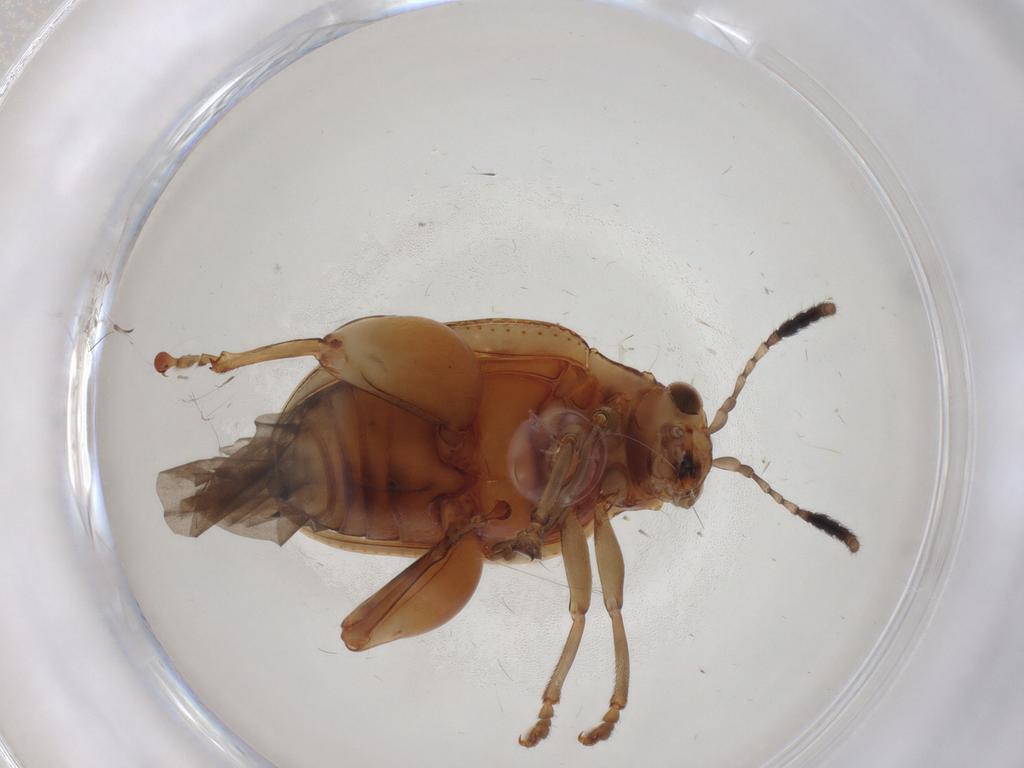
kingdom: Animalia
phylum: Arthropoda
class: Insecta
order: Coleoptera
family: Chrysomelidae
